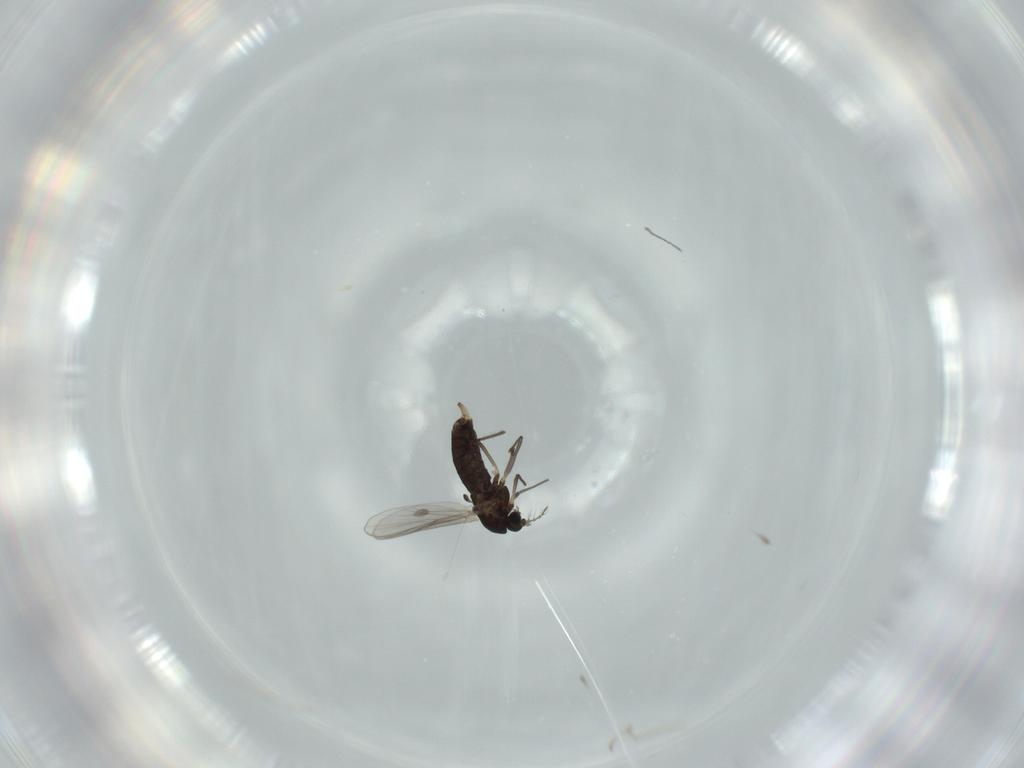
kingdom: Animalia
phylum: Arthropoda
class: Insecta
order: Diptera
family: Chironomidae
